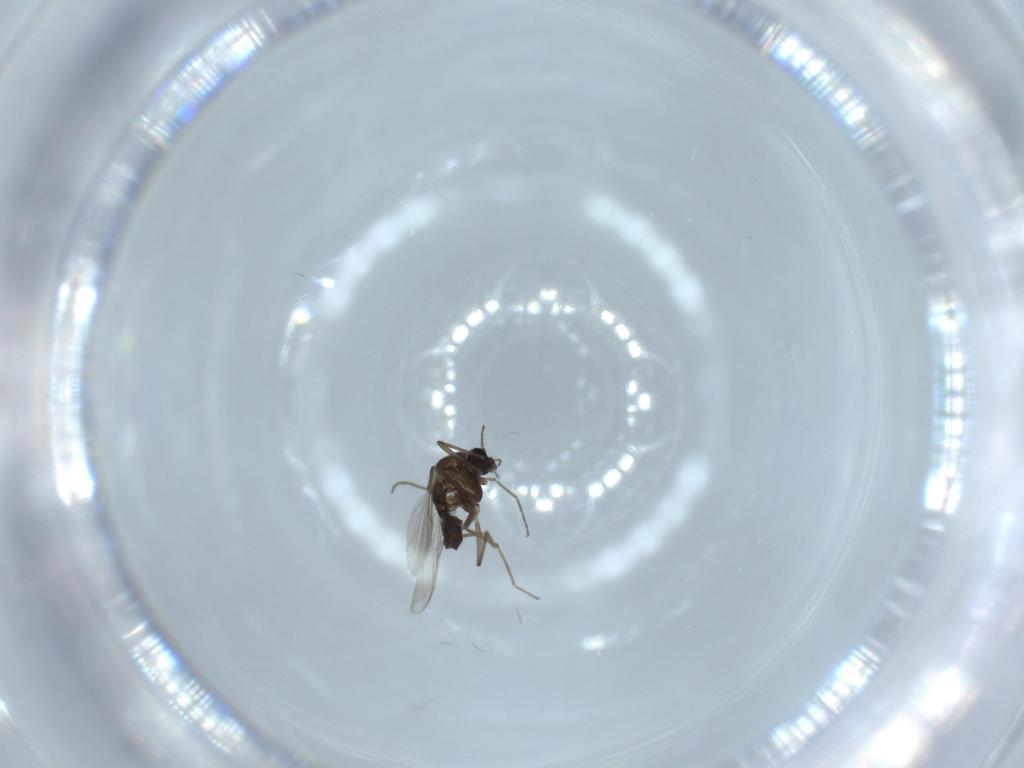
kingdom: Animalia
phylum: Arthropoda
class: Insecta
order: Diptera
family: Chironomidae
